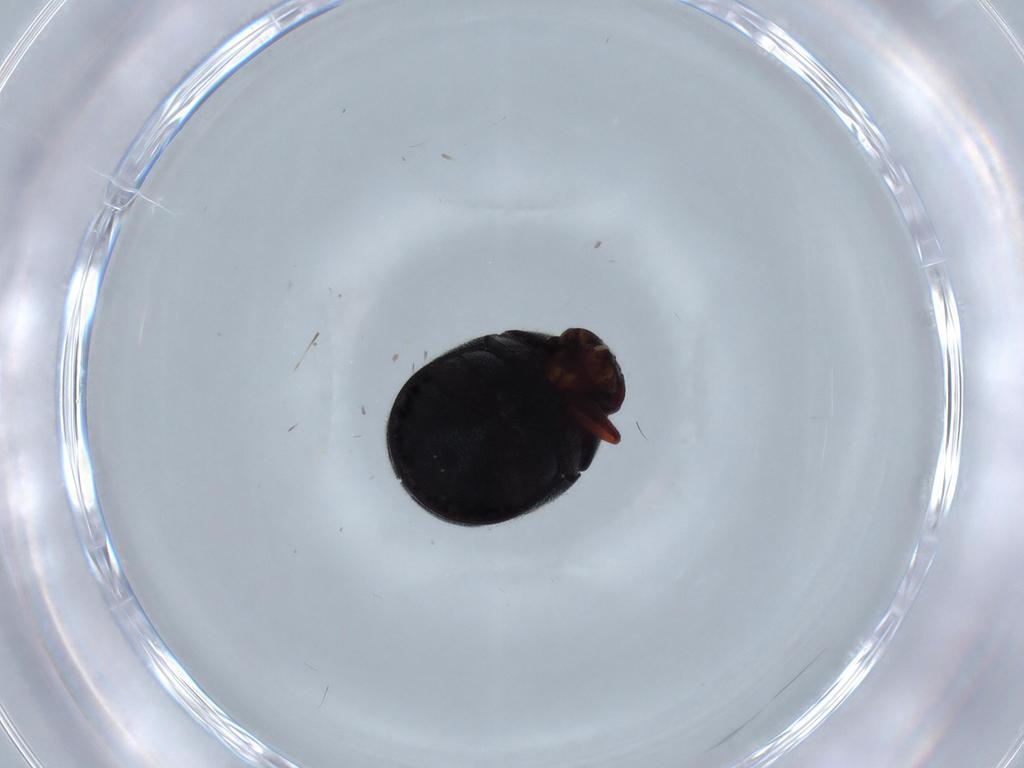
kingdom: Animalia
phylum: Arthropoda
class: Insecta
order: Coleoptera
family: Ptinidae
